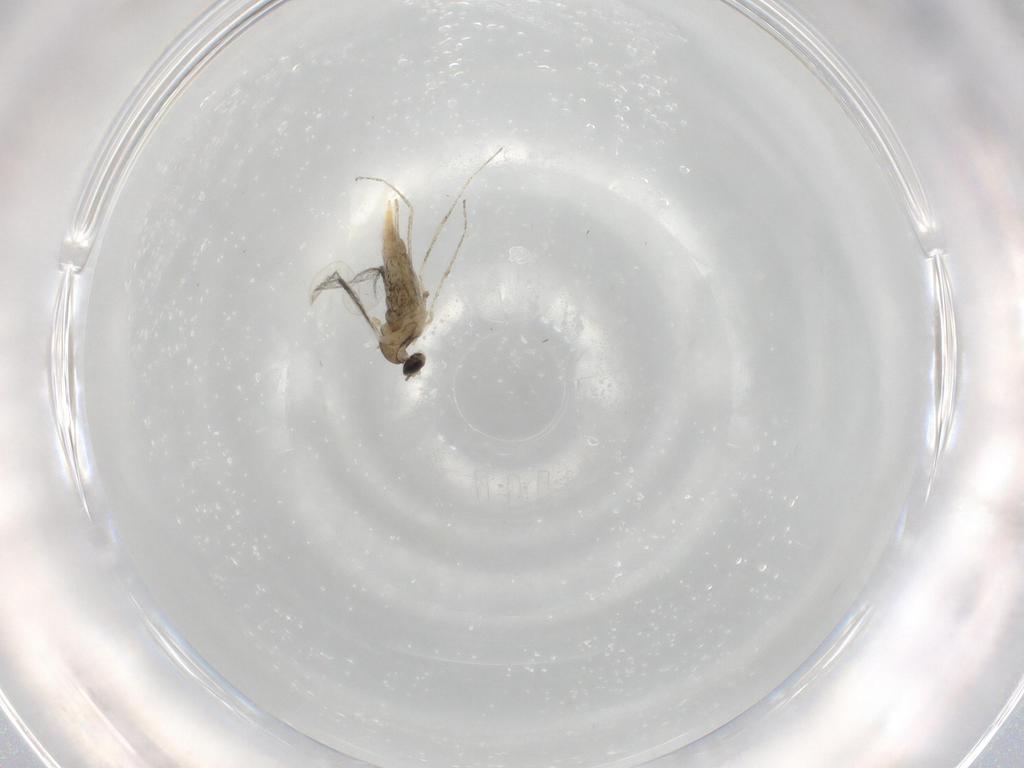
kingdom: Animalia
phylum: Arthropoda
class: Insecta
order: Diptera
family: Cecidomyiidae
